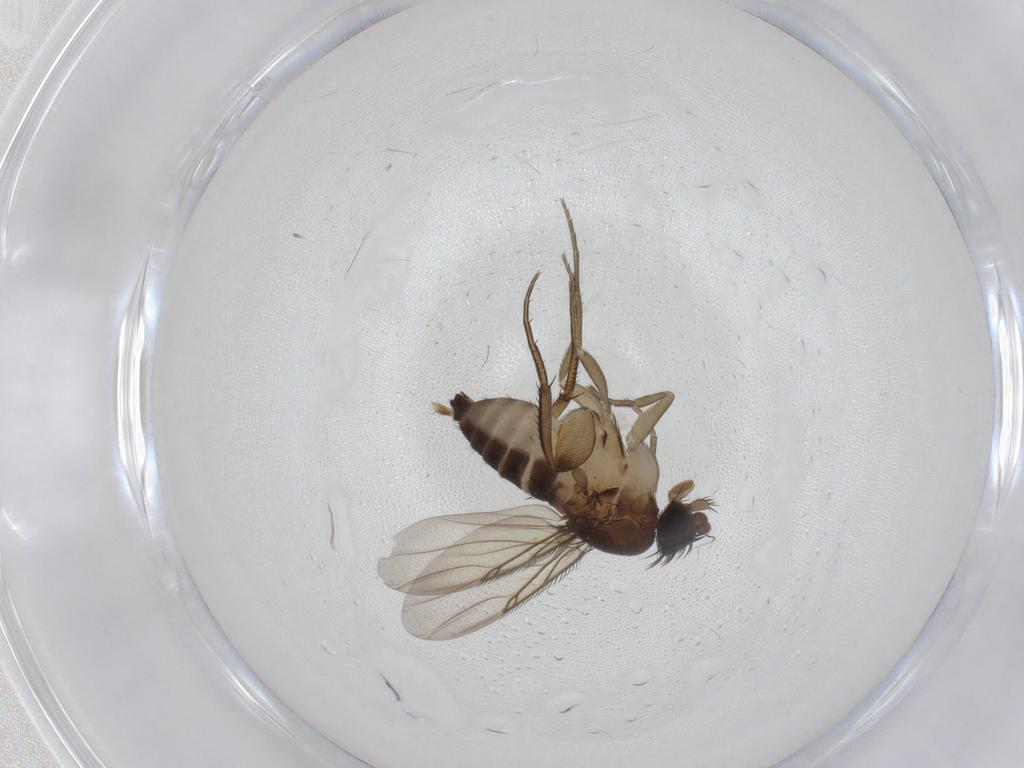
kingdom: Animalia
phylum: Arthropoda
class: Insecta
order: Diptera
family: Phoridae
